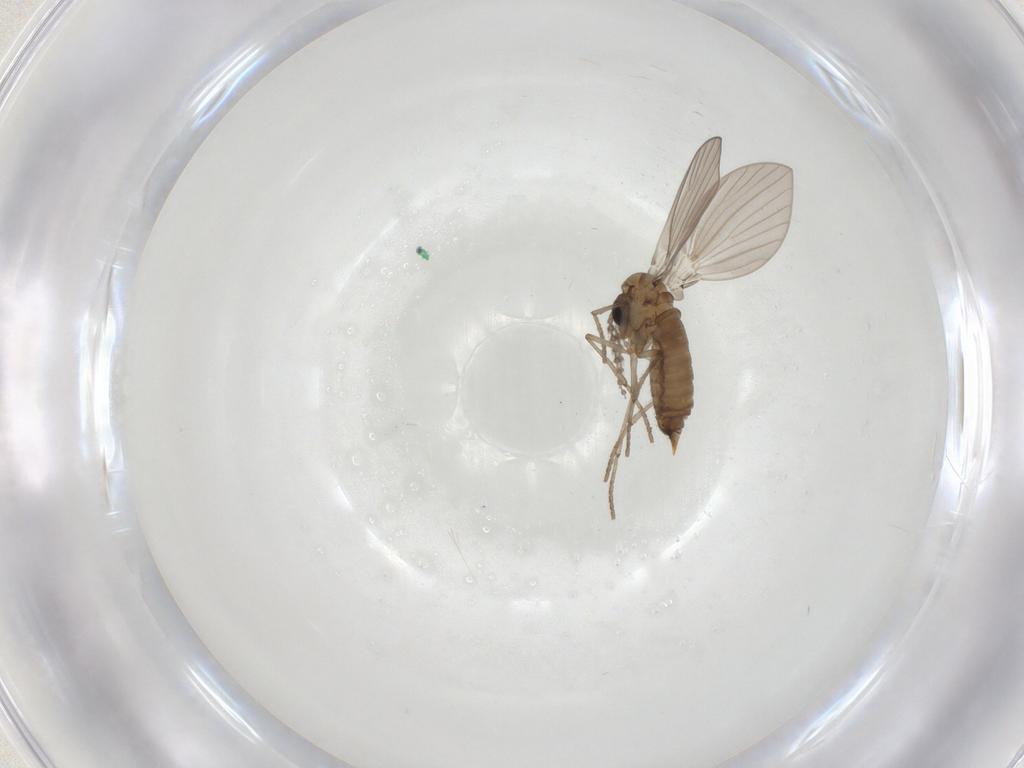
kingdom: Animalia
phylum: Arthropoda
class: Insecta
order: Diptera
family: Psychodidae
